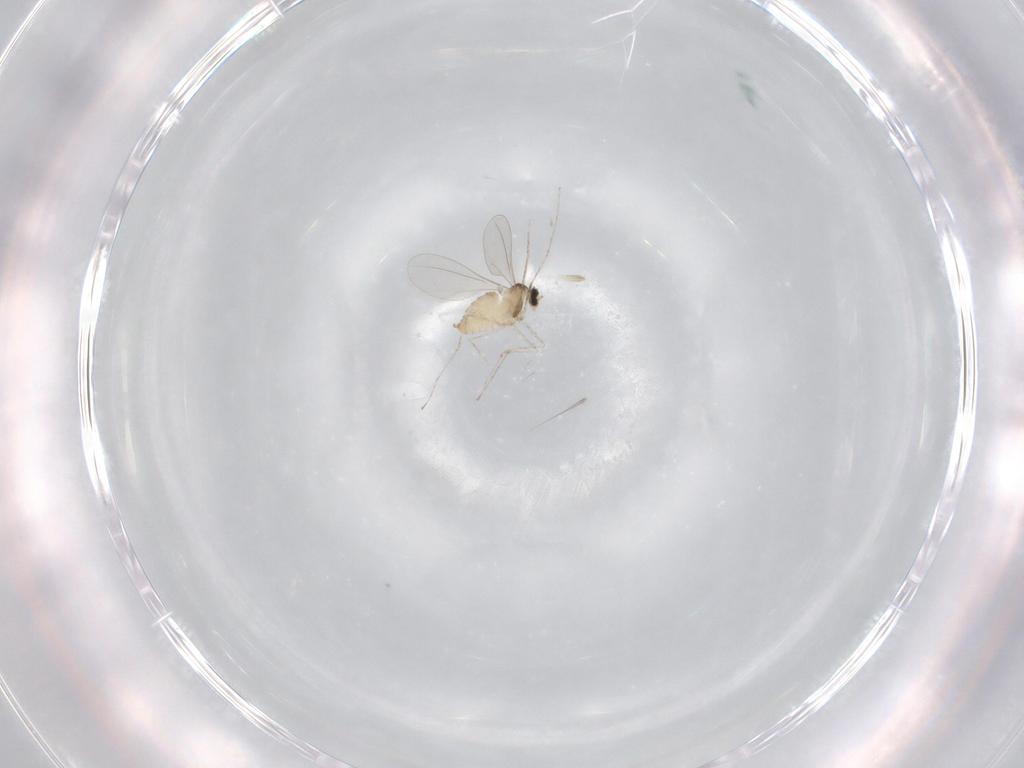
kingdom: Animalia
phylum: Arthropoda
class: Insecta
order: Diptera
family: Cecidomyiidae
